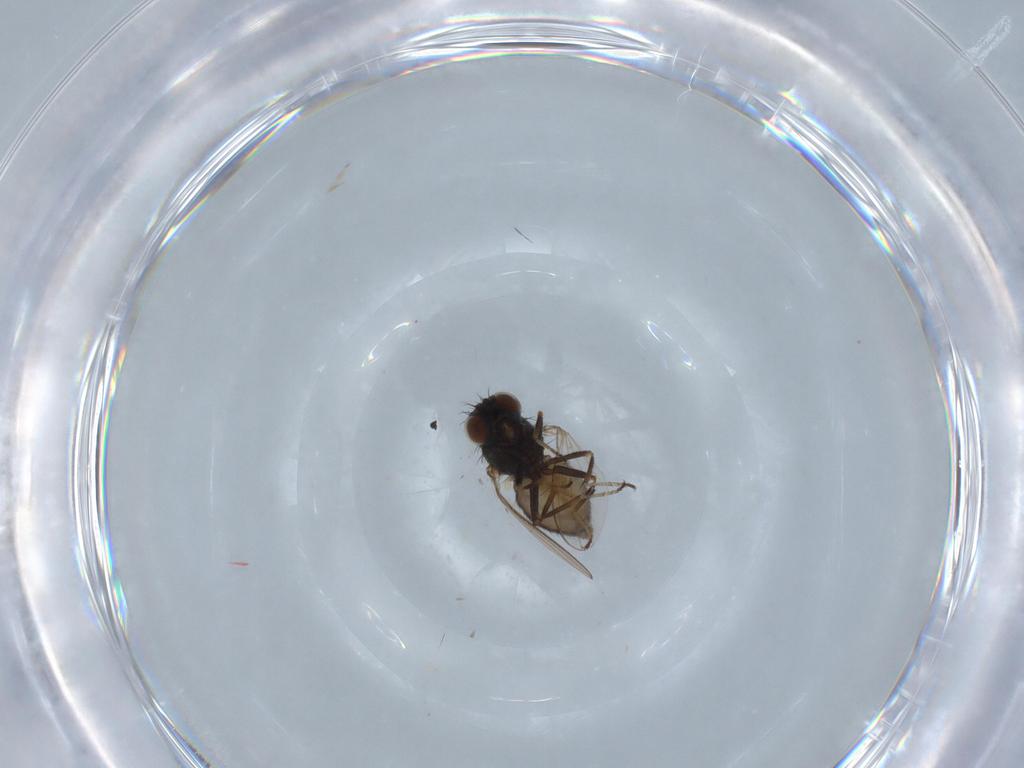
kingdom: Animalia
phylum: Arthropoda
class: Insecta
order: Diptera
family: Ephydridae
